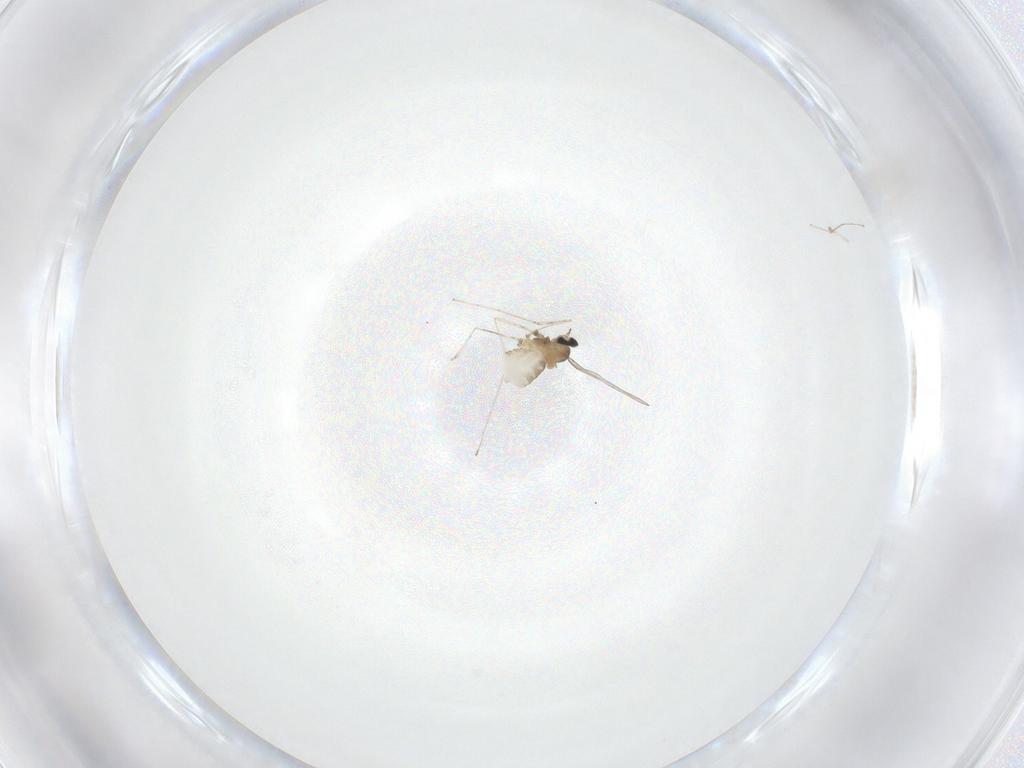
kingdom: Animalia
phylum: Arthropoda
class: Insecta
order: Diptera
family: Cecidomyiidae
